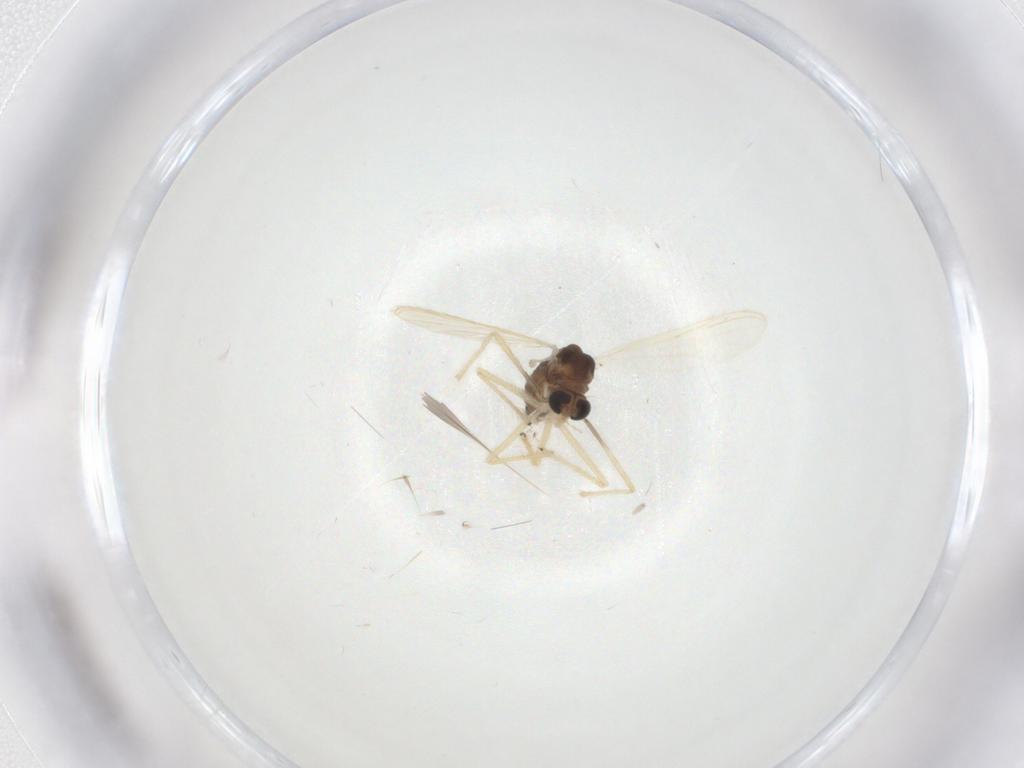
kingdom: Animalia
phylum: Arthropoda
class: Insecta
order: Diptera
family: Chironomidae
